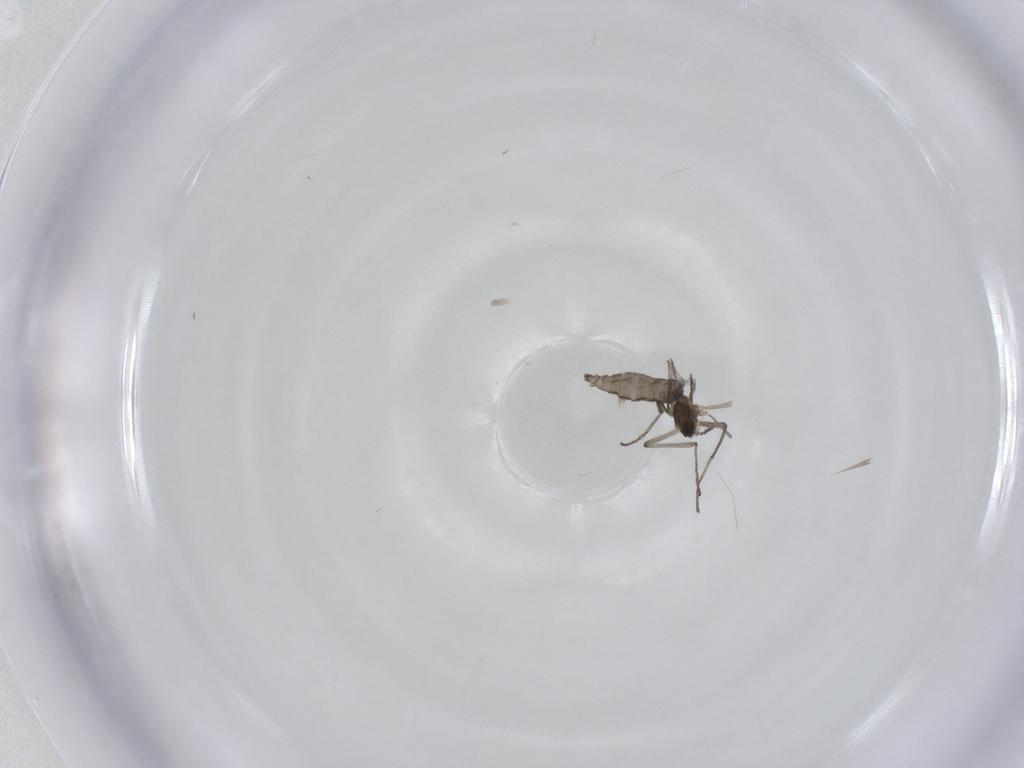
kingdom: Animalia
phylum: Arthropoda
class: Insecta
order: Diptera
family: Cecidomyiidae
